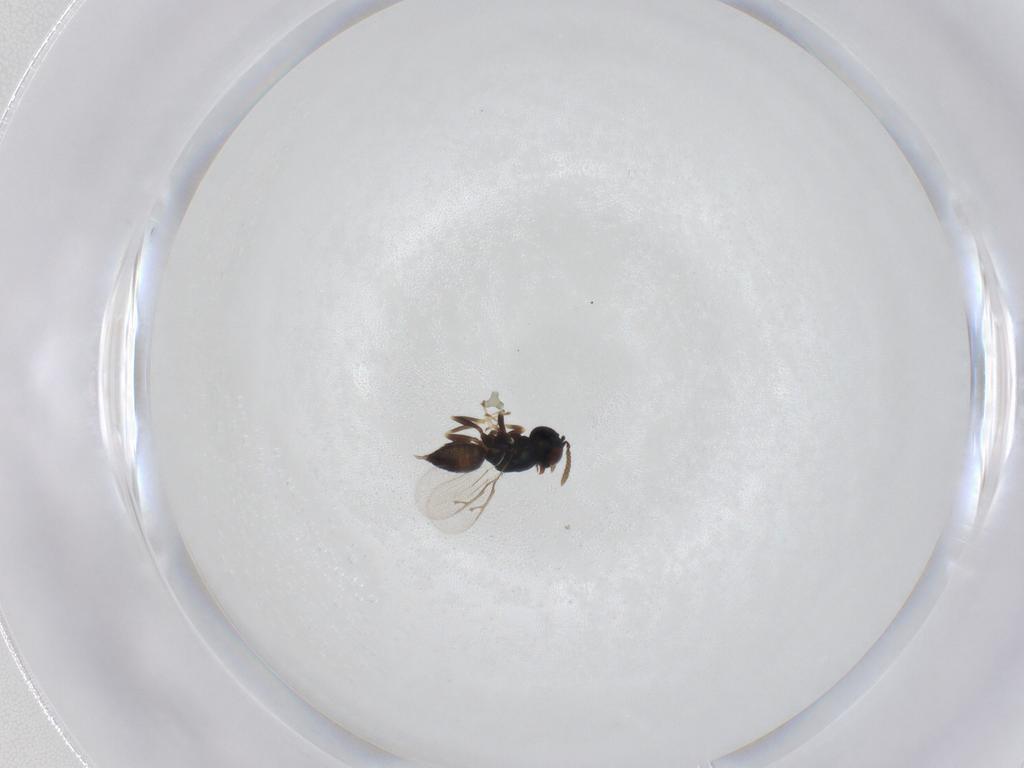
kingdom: Animalia
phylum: Arthropoda
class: Insecta
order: Hymenoptera
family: Pteromalidae
